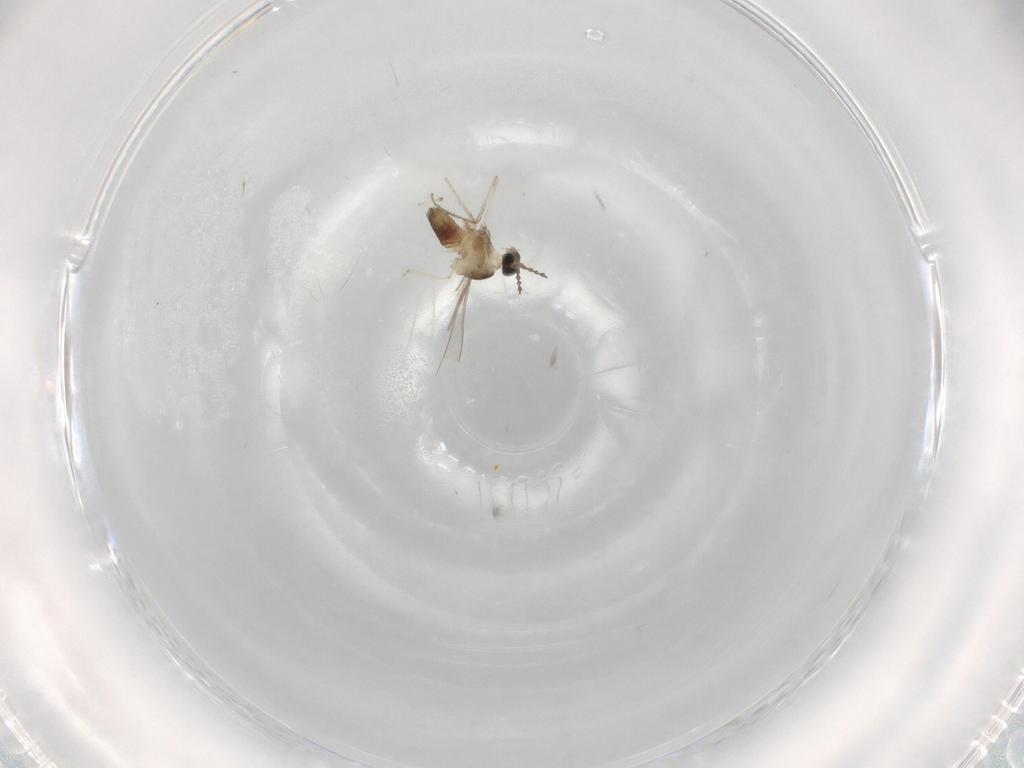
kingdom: Animalia
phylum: Arthropoda
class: Insecta
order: Diptera
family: Cecidomyiidae
